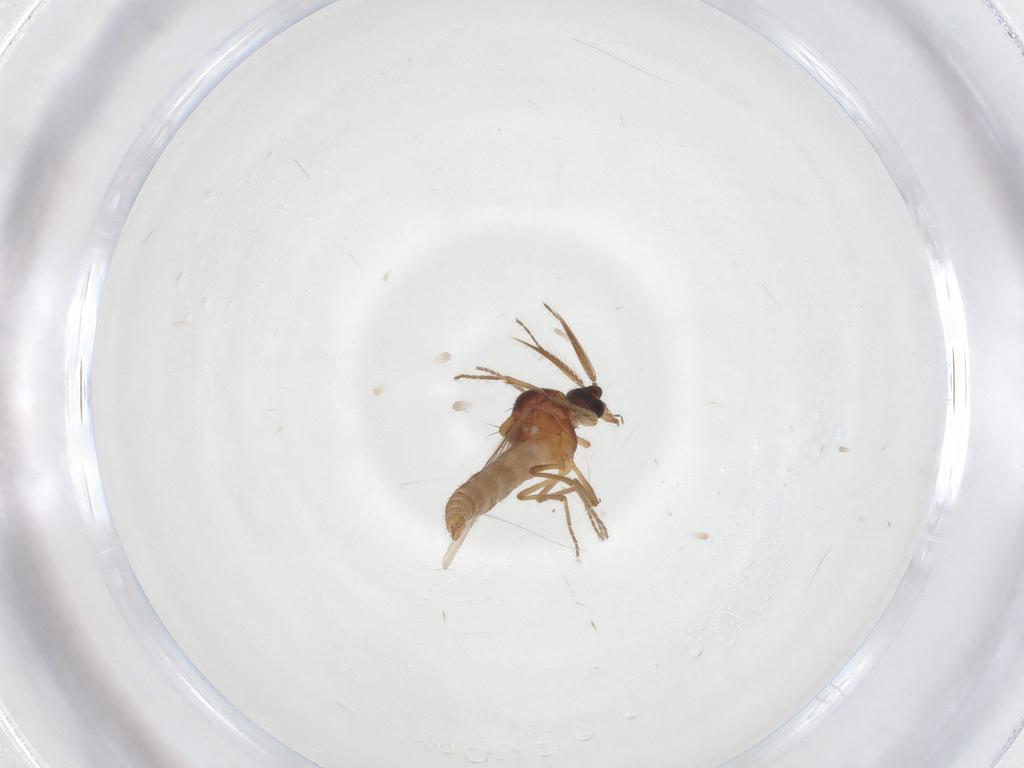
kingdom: Animalia
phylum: Arthropoda
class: Insecta
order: Diptera
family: Ceratopogonidae
